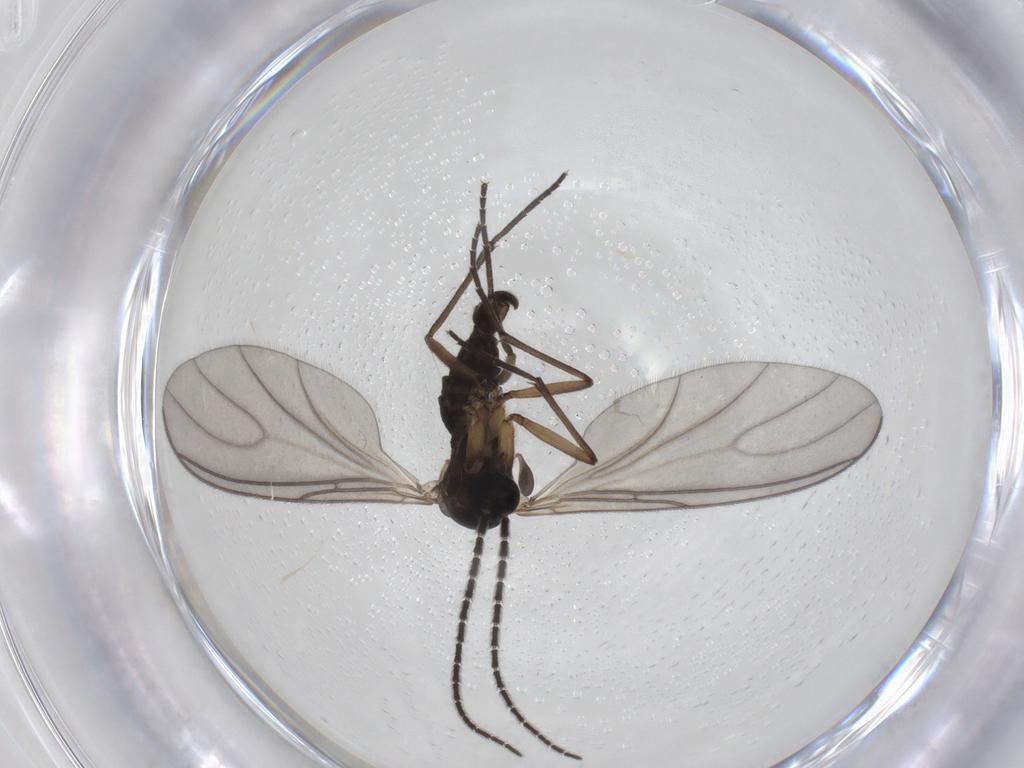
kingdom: Animalia
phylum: Arthropoda
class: Insecta
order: Diptera
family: Sciaridae
